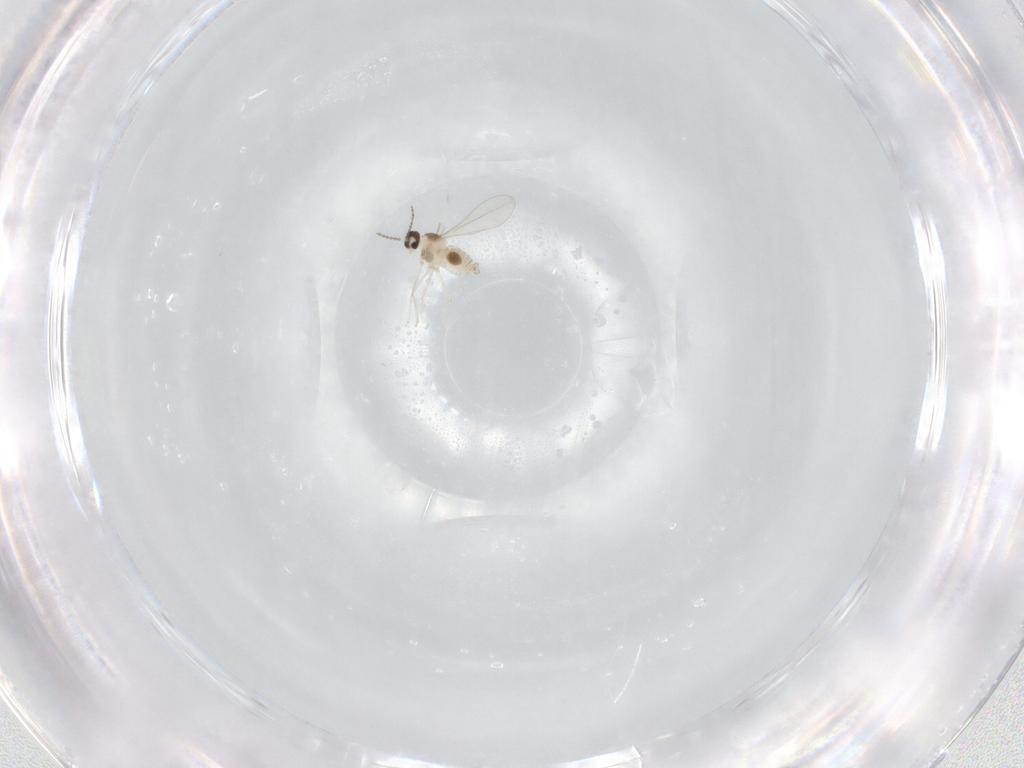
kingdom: Animalia
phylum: Arthropoda
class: Insecta
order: Diptera
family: Cecidomyiidae
